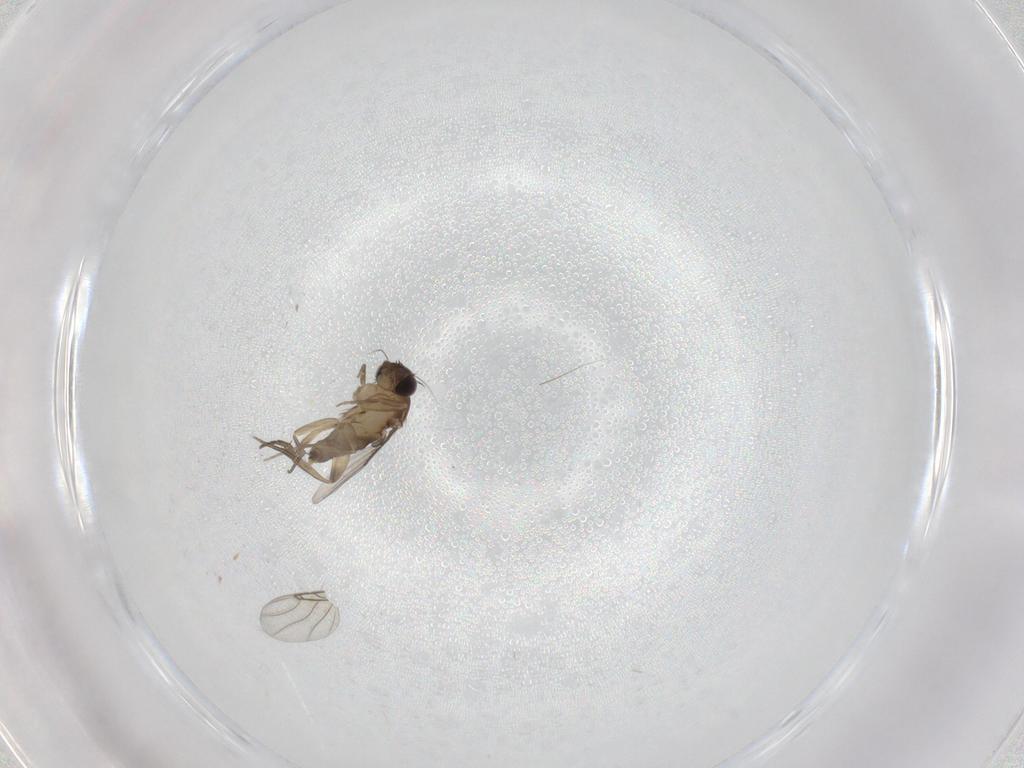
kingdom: Animalia
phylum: Arthropoda
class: Insecta
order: Diptera
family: Phoridae
